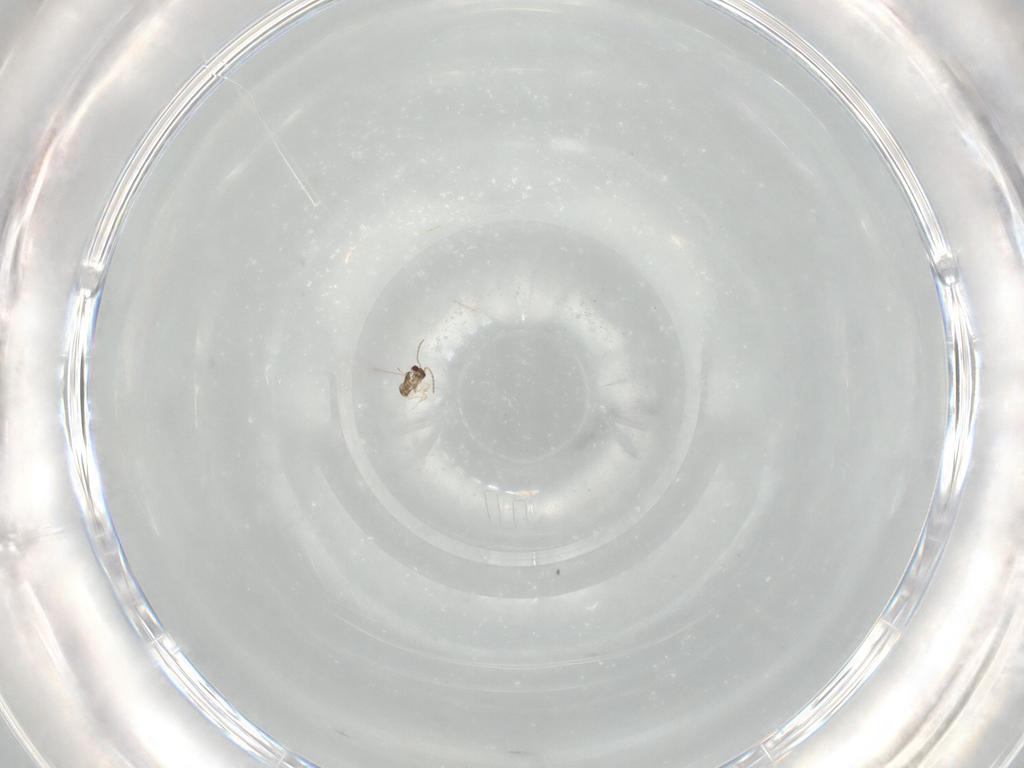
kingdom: Animalia
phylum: Arthropoda
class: Insecta
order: Hymenoptera
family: Mymaridae
